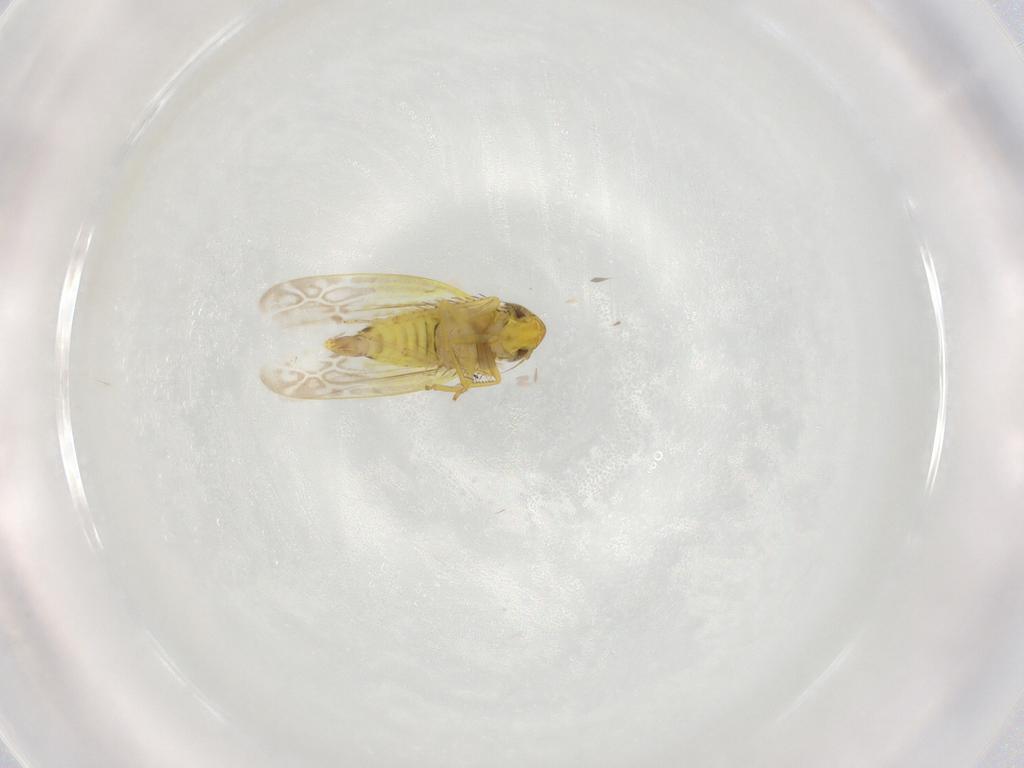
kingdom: Animalia
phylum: Arthropoda
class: Insecta
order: Hemiptera
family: Cicadellidae
